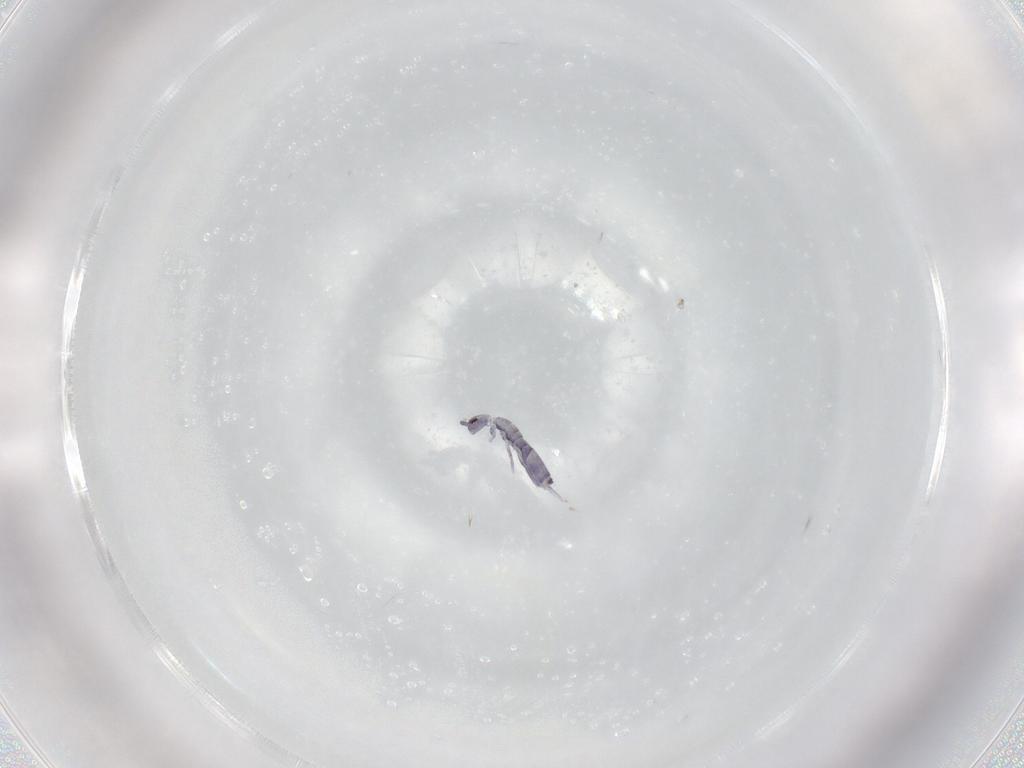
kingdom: Animalia
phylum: Arthropoda
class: Collembola
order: Entomobryomorpha
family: Entomobryidae
